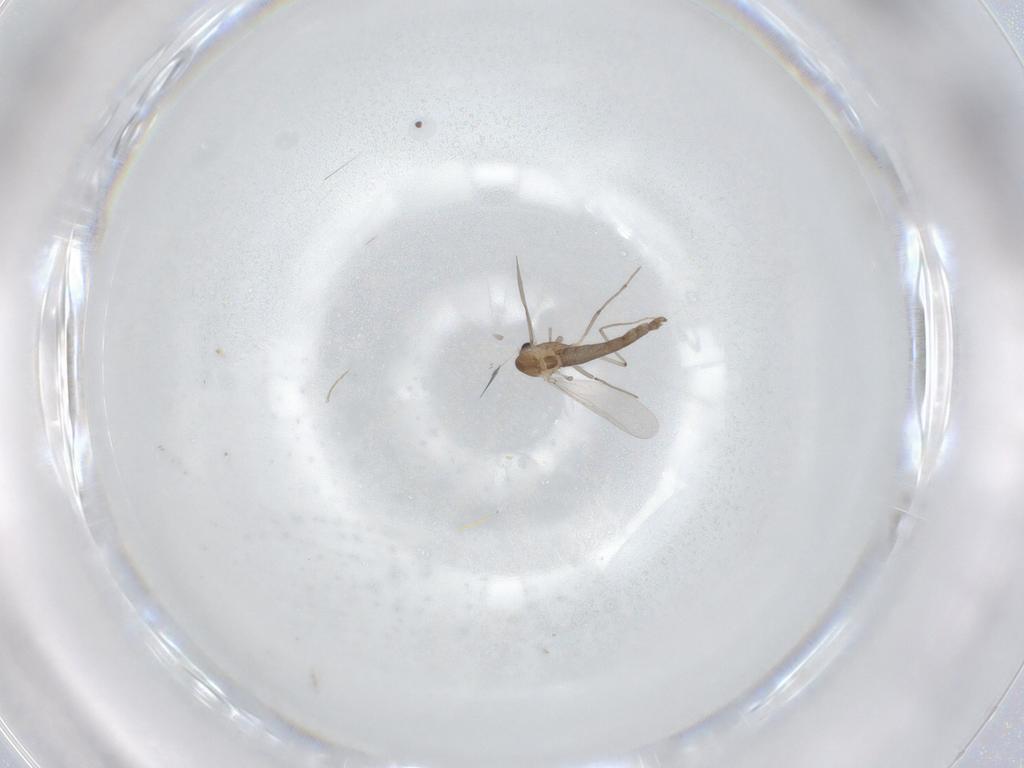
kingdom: Animalia
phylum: Arthropoda
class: Insecta
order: Diptera
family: Chironomidae
